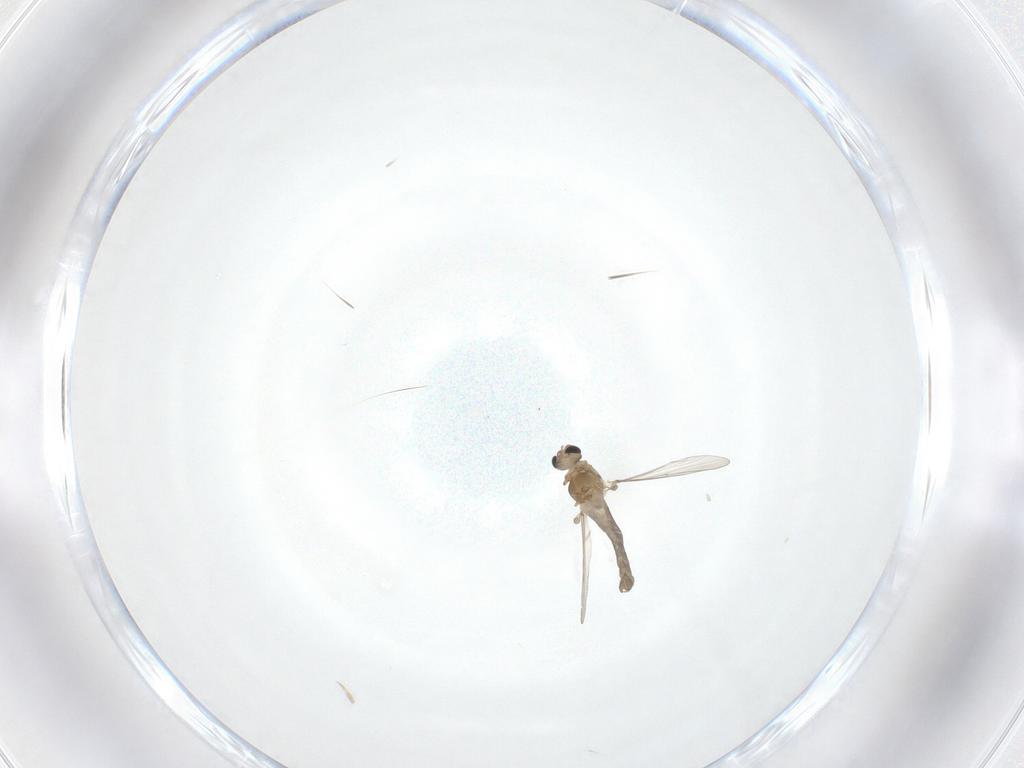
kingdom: Animalia
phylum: Arthropoda
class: Insecta
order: Diptera
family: Chironomidae
